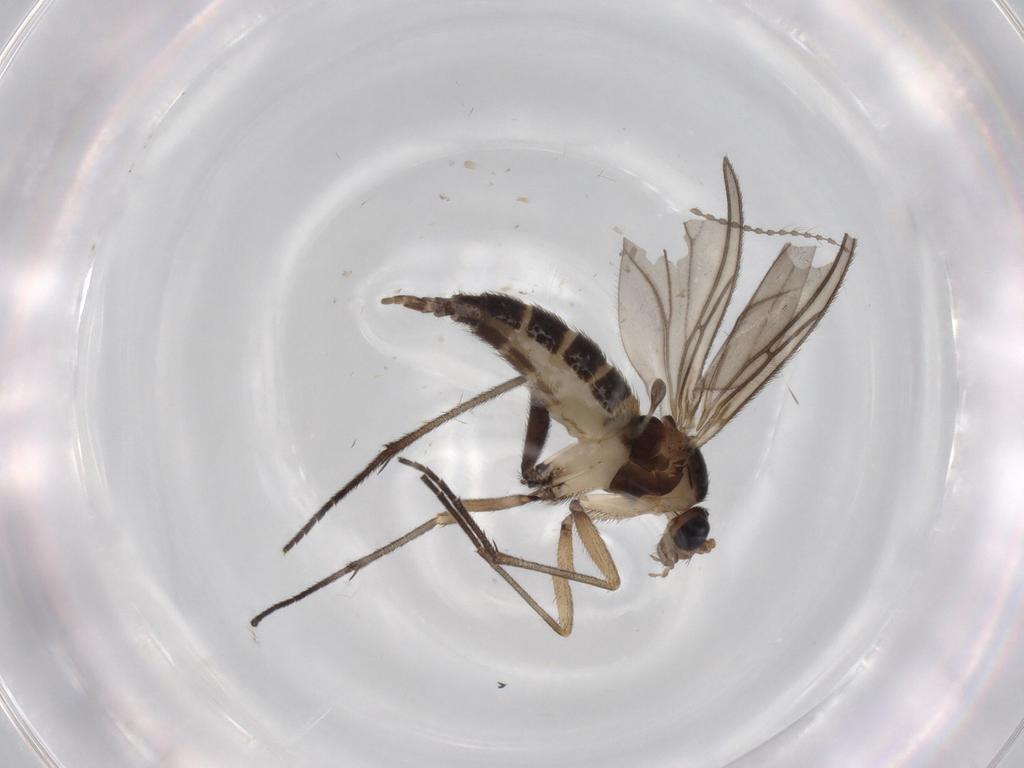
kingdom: Animalia
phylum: Arthropoda
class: Insecta
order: Diptera
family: Sciaridae
